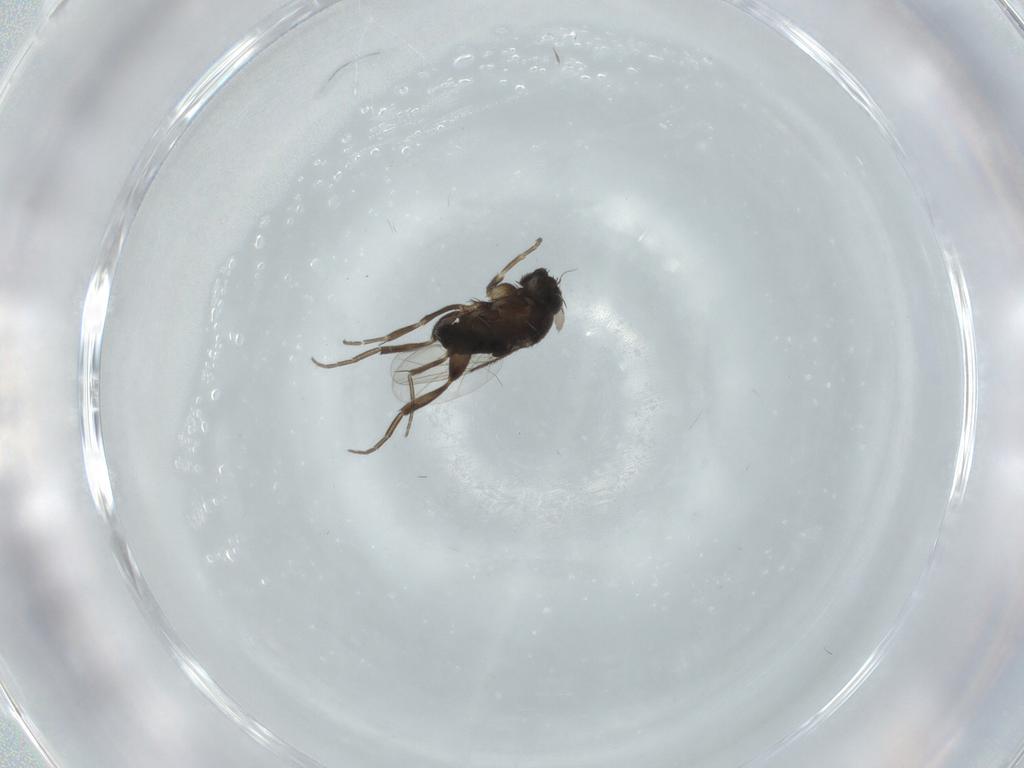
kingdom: Animalia
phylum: Arthropoda
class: Insecta
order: Diptera
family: Phoridae
